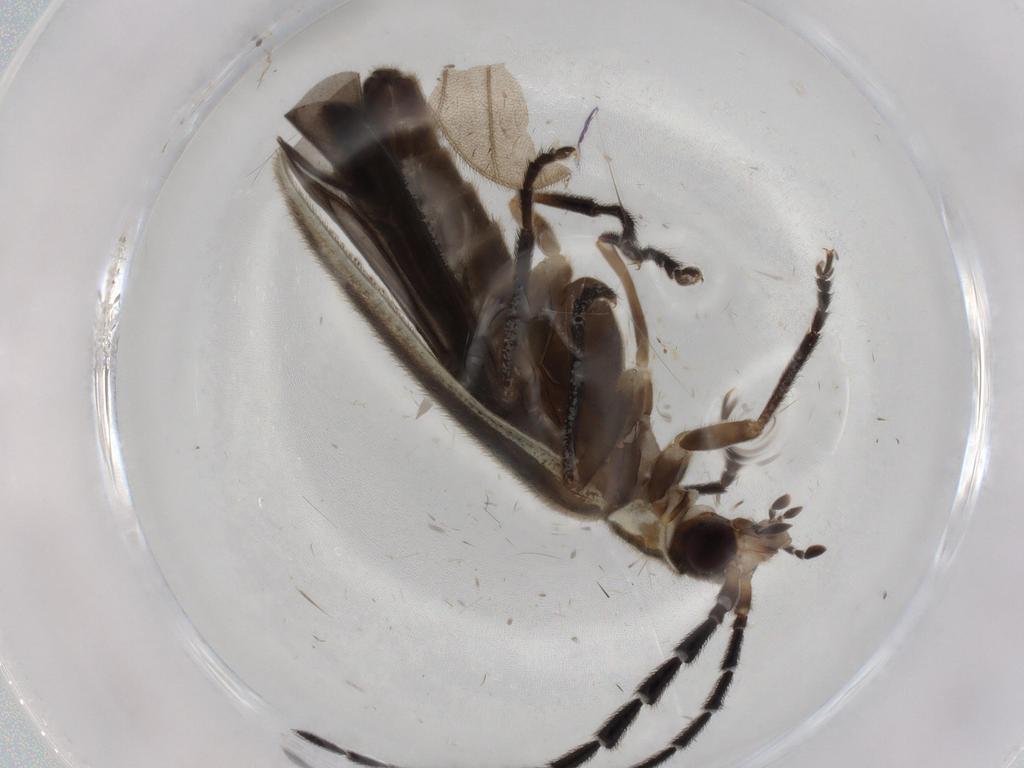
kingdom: Animalia
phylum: Arthropoda
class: Insecta
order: Coleoptera
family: Cantharidae
